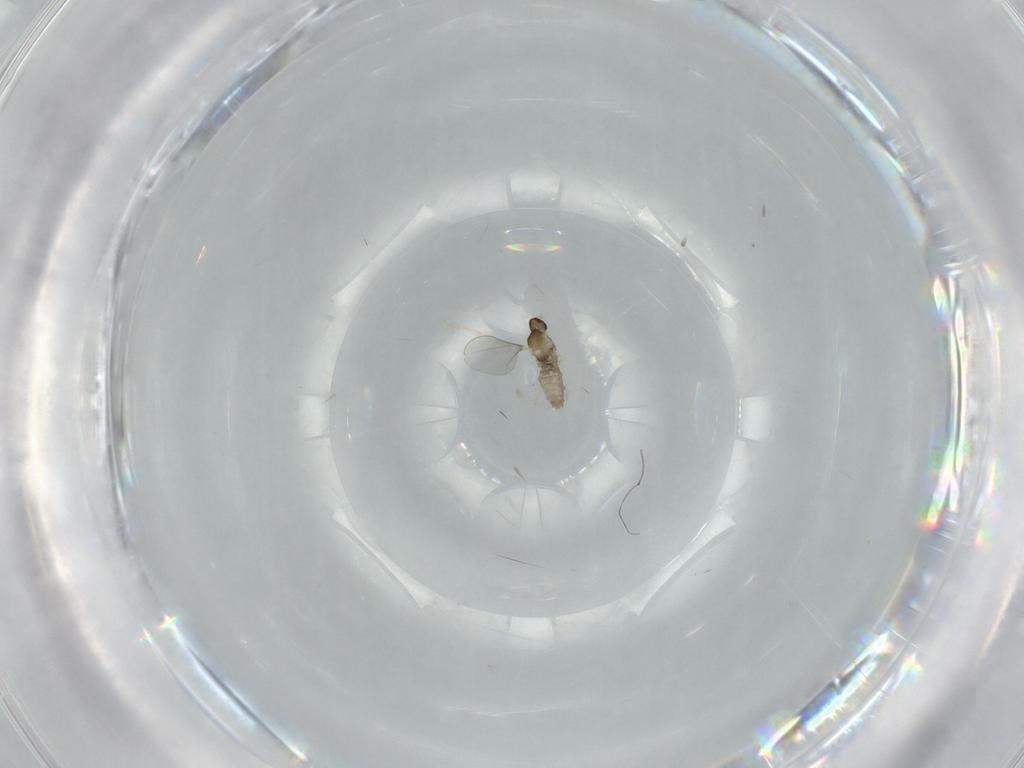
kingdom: Animalia
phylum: Arthropoda
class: Insecta
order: Diptera
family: Cecidomyiidae
